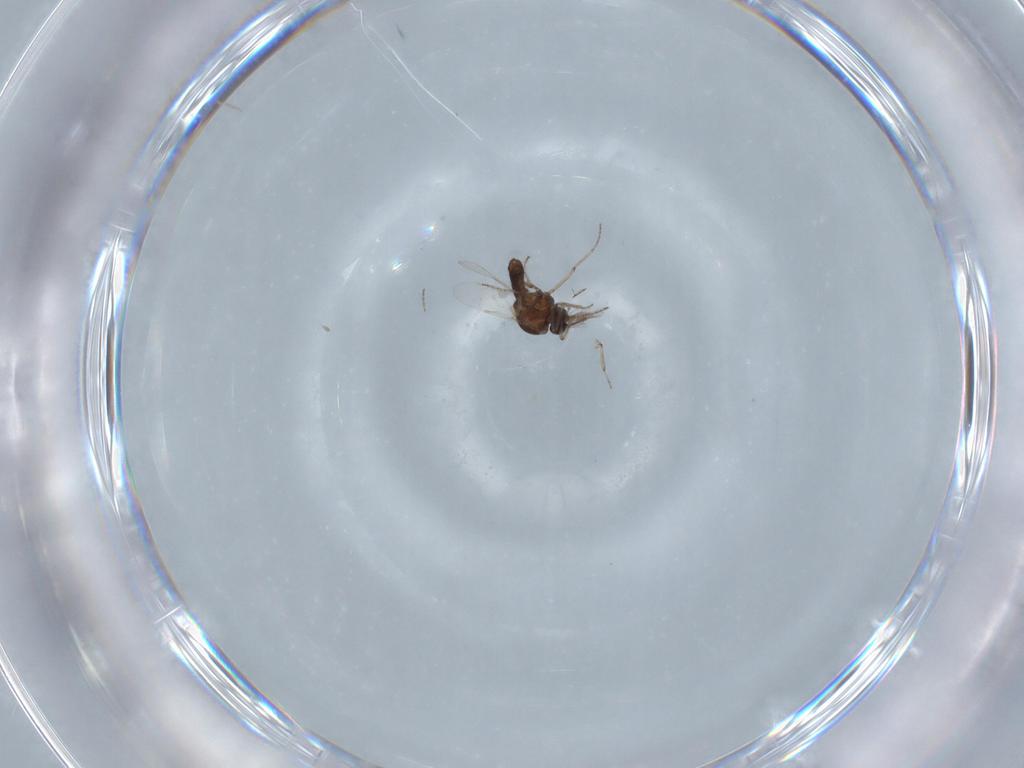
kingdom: Animalia
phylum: Arthropoda
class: Insecta
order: Diptera
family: Ceratopogonidae
